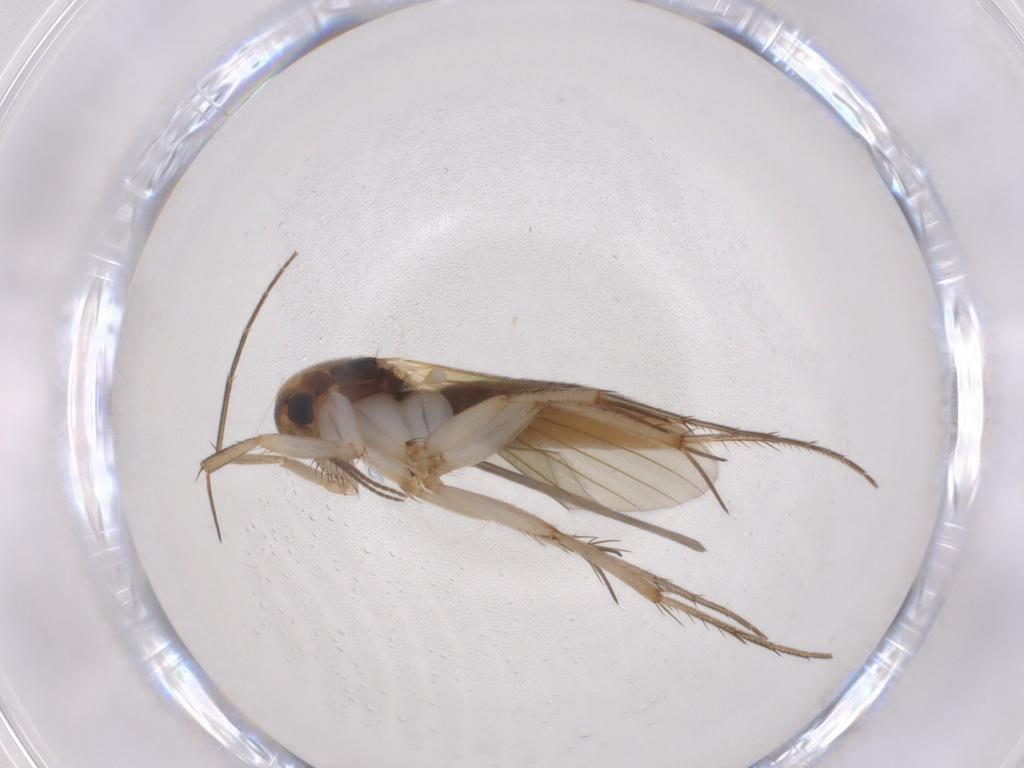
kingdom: Animalia
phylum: Arthropoda
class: Insecta
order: Diptera
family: Mycetophilidae
